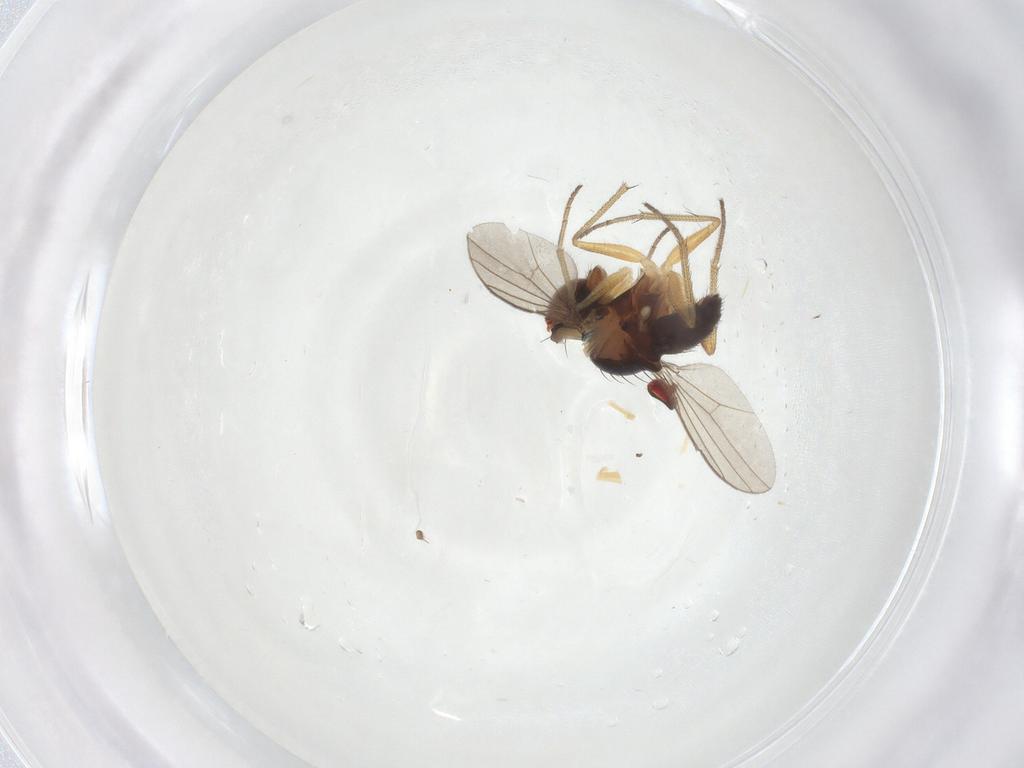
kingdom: Animalia
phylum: Arthropoda
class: Insecta
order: Diptera
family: Dolichopodidae
